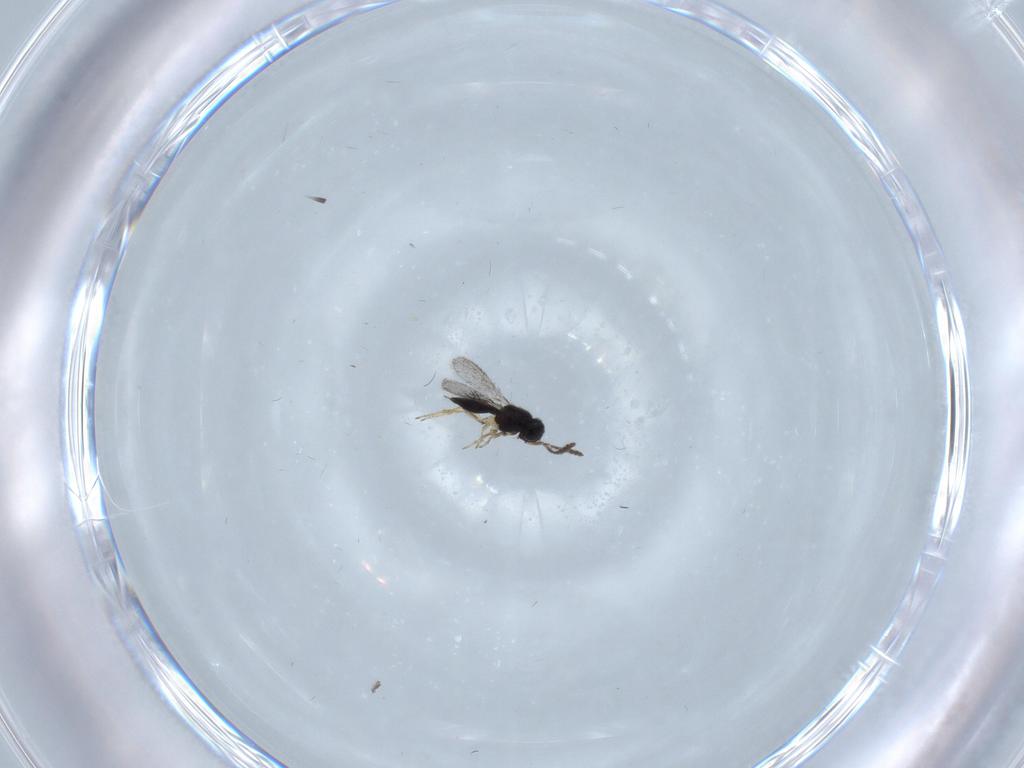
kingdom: Animalia
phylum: Arthropoda
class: Insecta
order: Hymenoptera
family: Scelionidae
